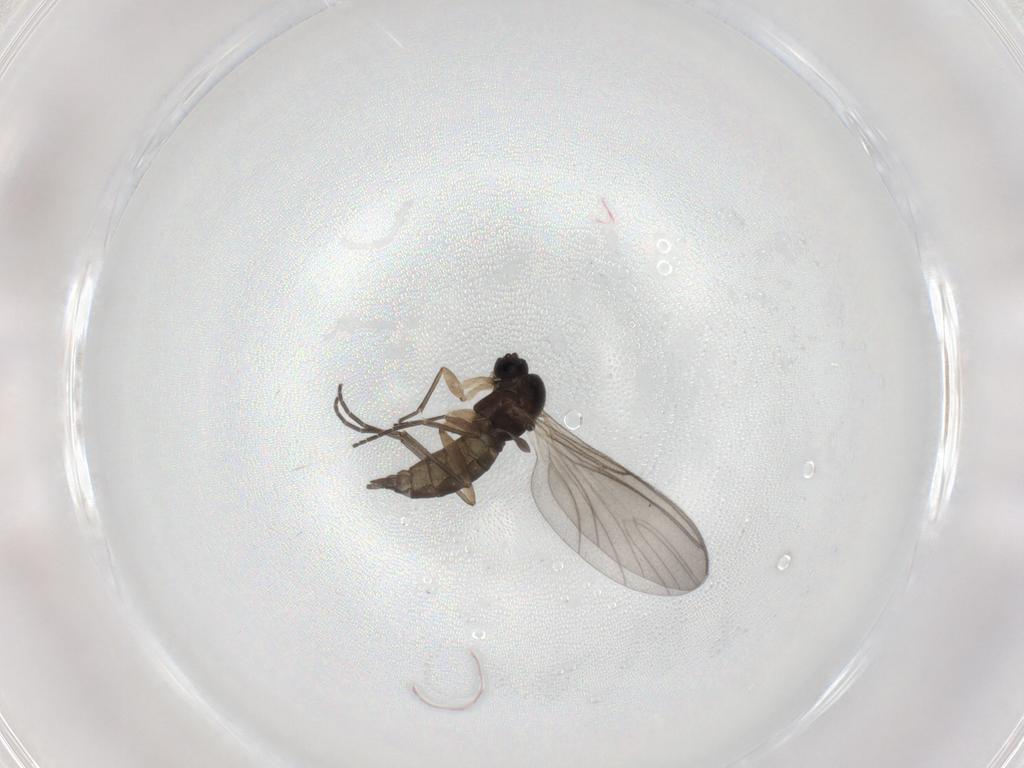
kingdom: Animalia
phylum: Arthropoda
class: Insecta
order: Diptera
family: Sciaridae
